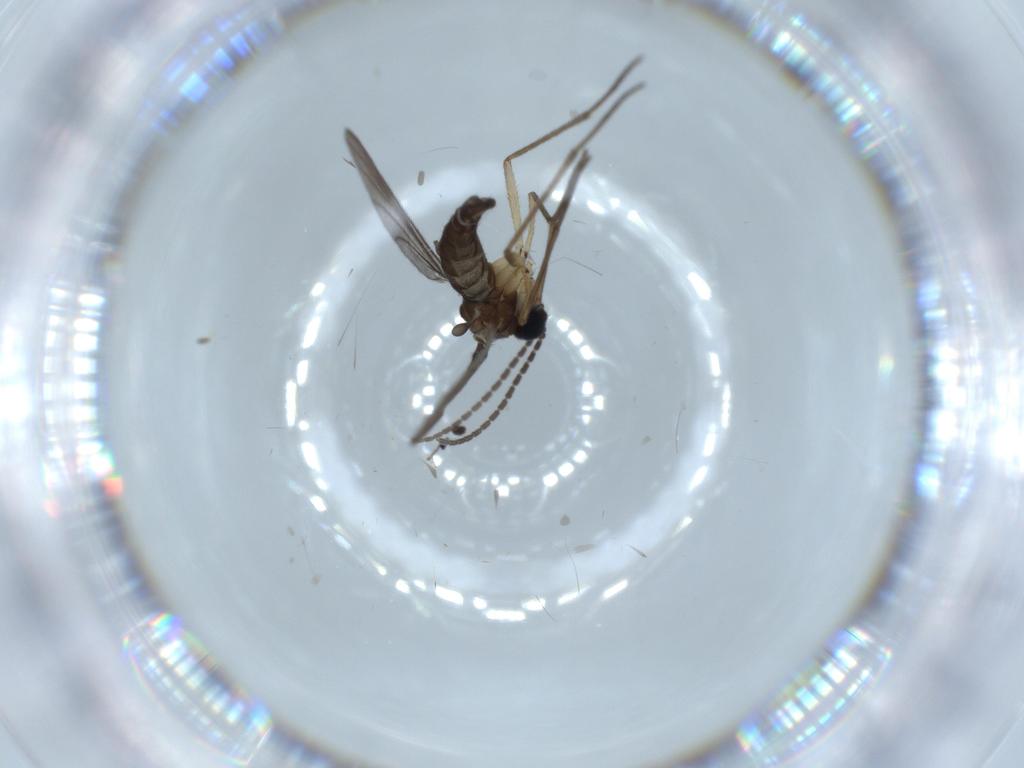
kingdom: Animalia
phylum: Arthropoda
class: Insecta
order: Diptera
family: Sciaridae
